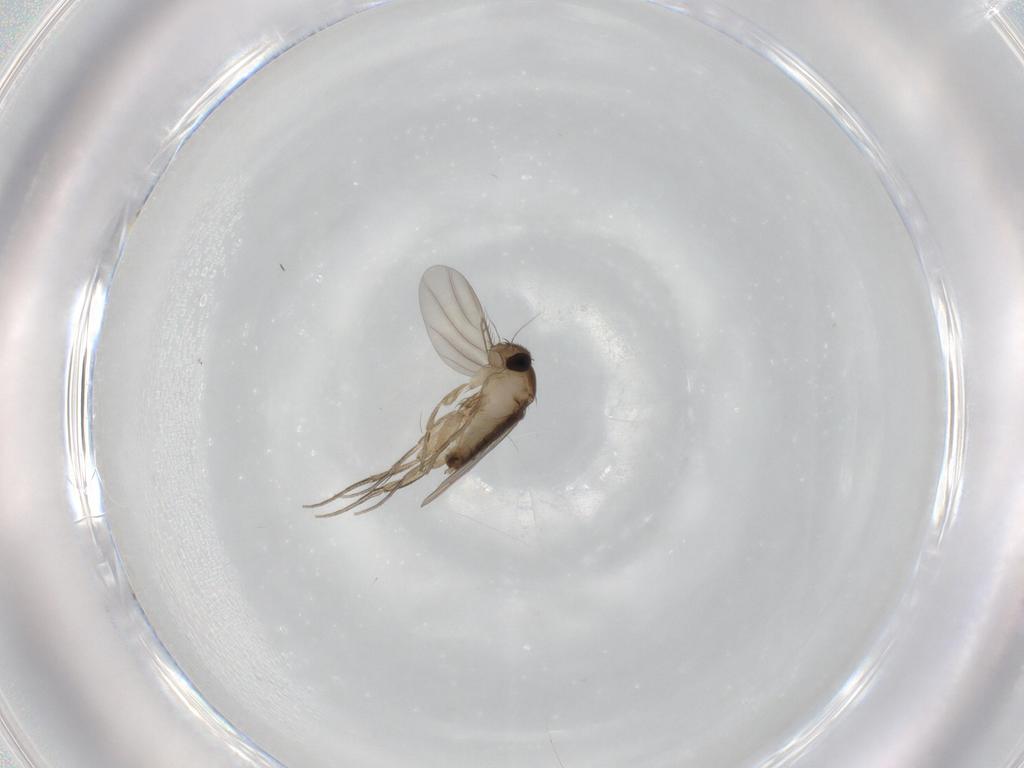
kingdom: Animalia
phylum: Arthropoda
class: Insecta
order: Diptera
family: Phoridae
